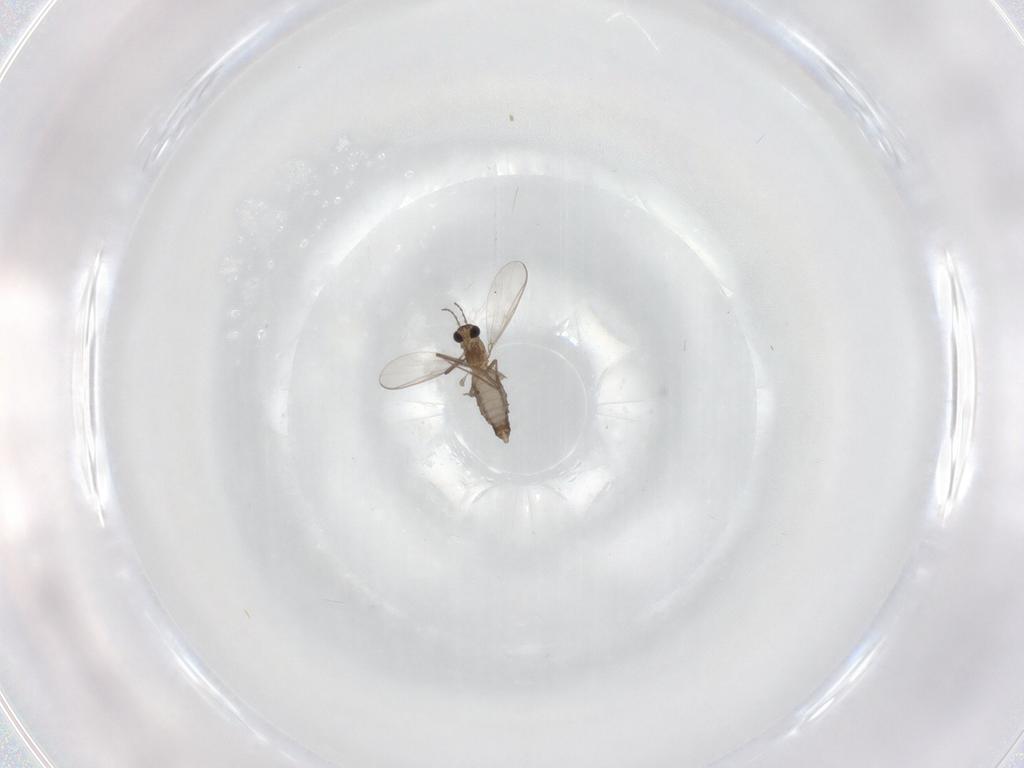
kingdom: Animalia
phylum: Arthropoda
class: Insecta
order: Diptera
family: Chironomidae
